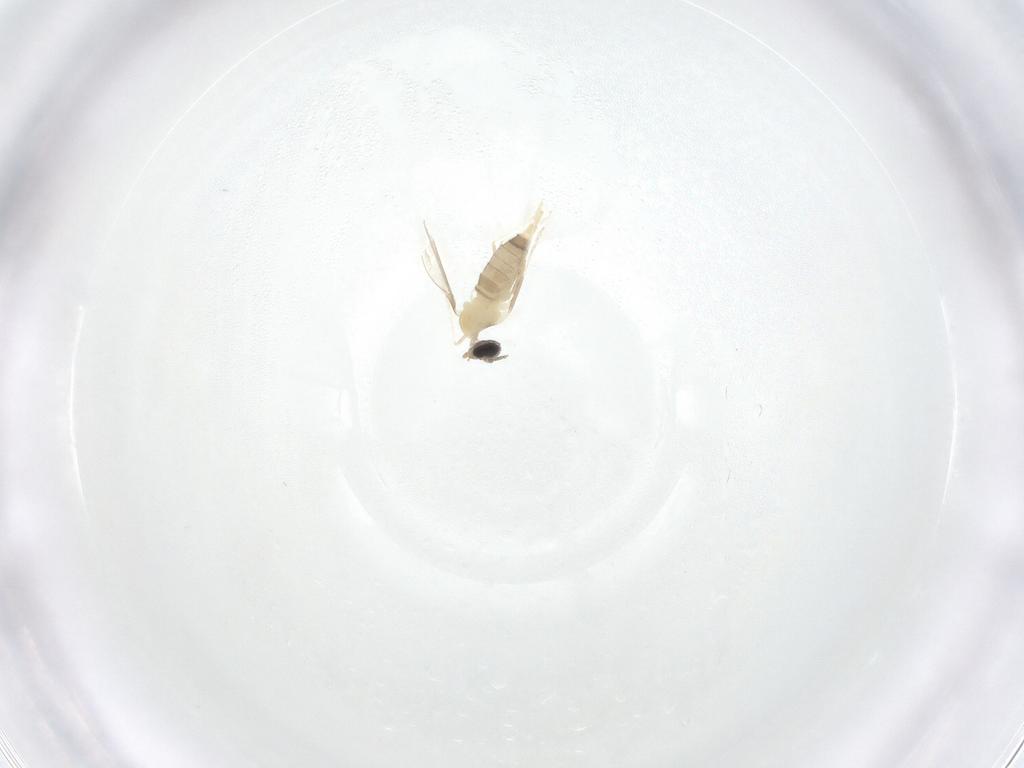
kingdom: Animalia
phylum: Arthropoda
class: Insecta
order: Diptera
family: Cecidomyiidae
